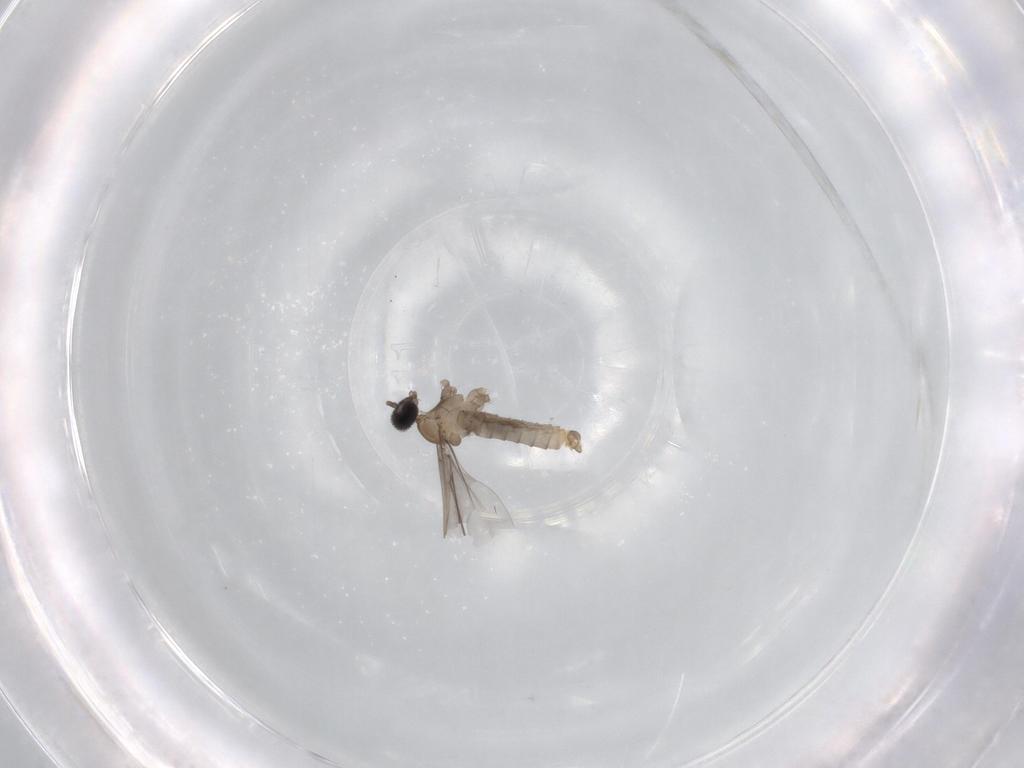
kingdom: Animalia
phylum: Arthropoda
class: Insecta
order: Diptera
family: Cecidomyiidae
